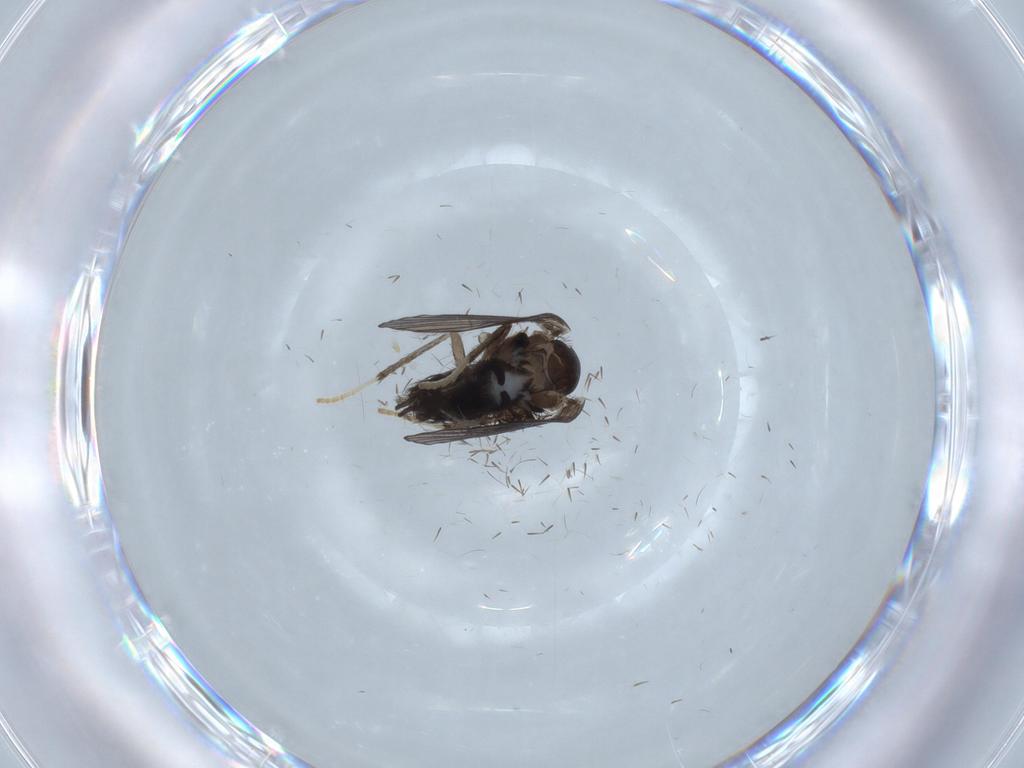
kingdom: Animalia
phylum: Arthropoda
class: Insecta
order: Diptera
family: Psychodidae
